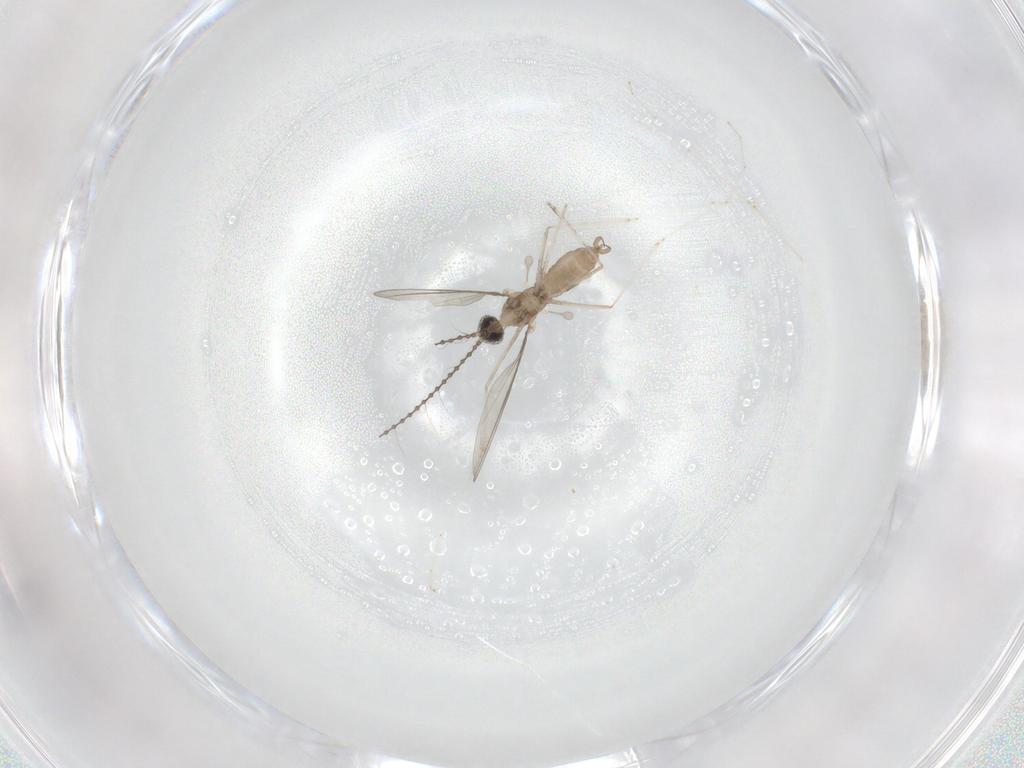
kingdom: Animalia
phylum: Arthropoda
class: Insecta
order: Diptera
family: Cecidomyiidae
